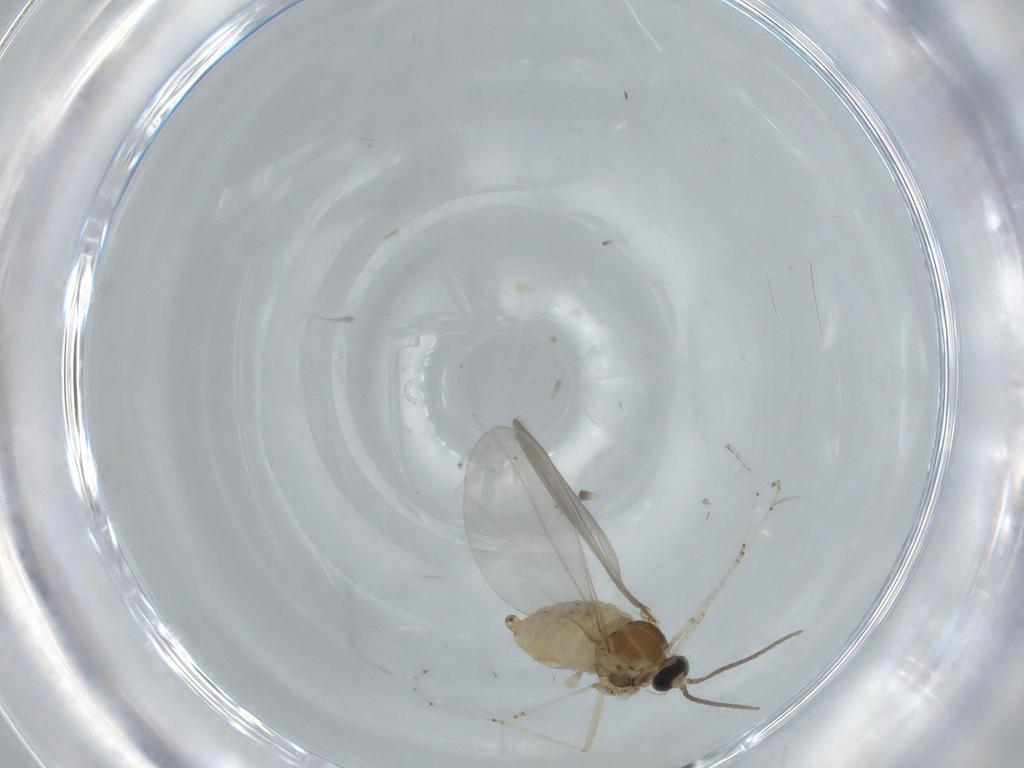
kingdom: Animalia
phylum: Arthropoda
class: Insecta
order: Diptera
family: Cecidomyiidae
